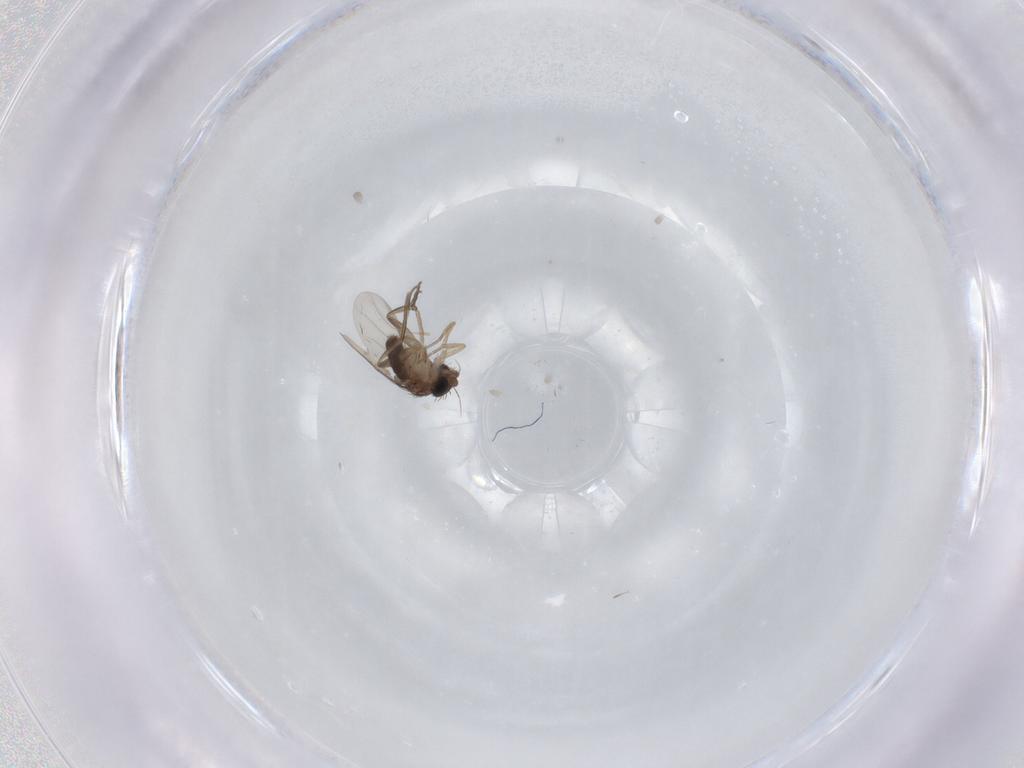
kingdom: Animalia
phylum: Arthropoda
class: Insecta
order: Diptera
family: Phoridae
